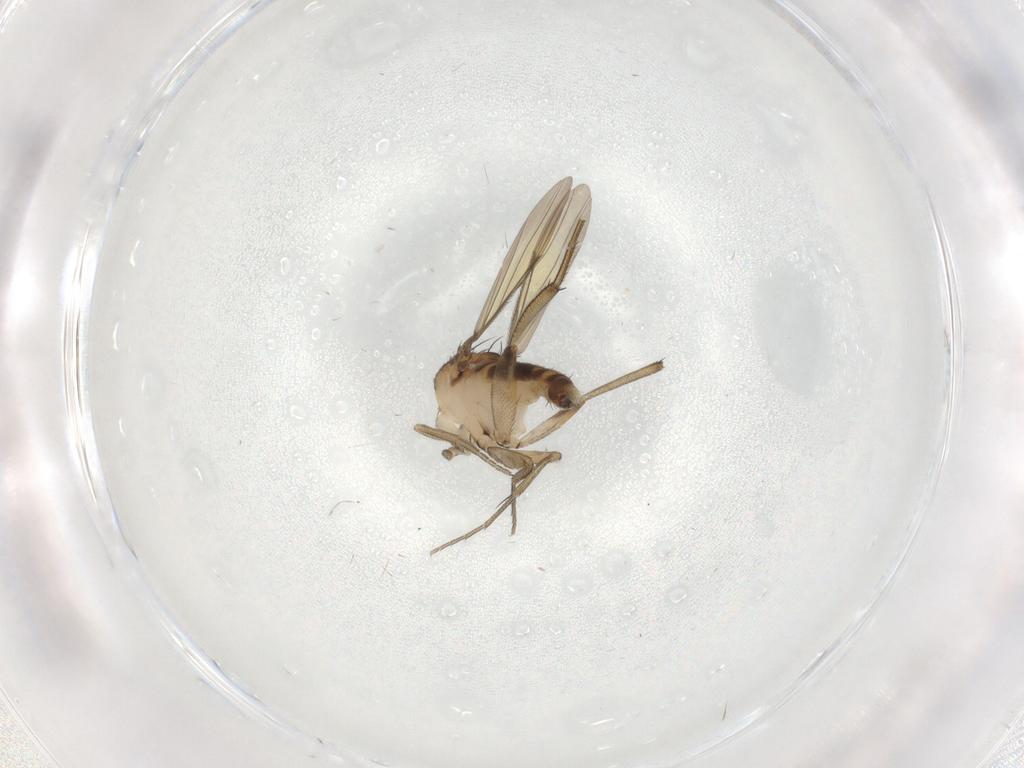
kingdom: Animalia
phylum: Arthropoda
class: Insecta
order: Diptera
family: Phoridae
